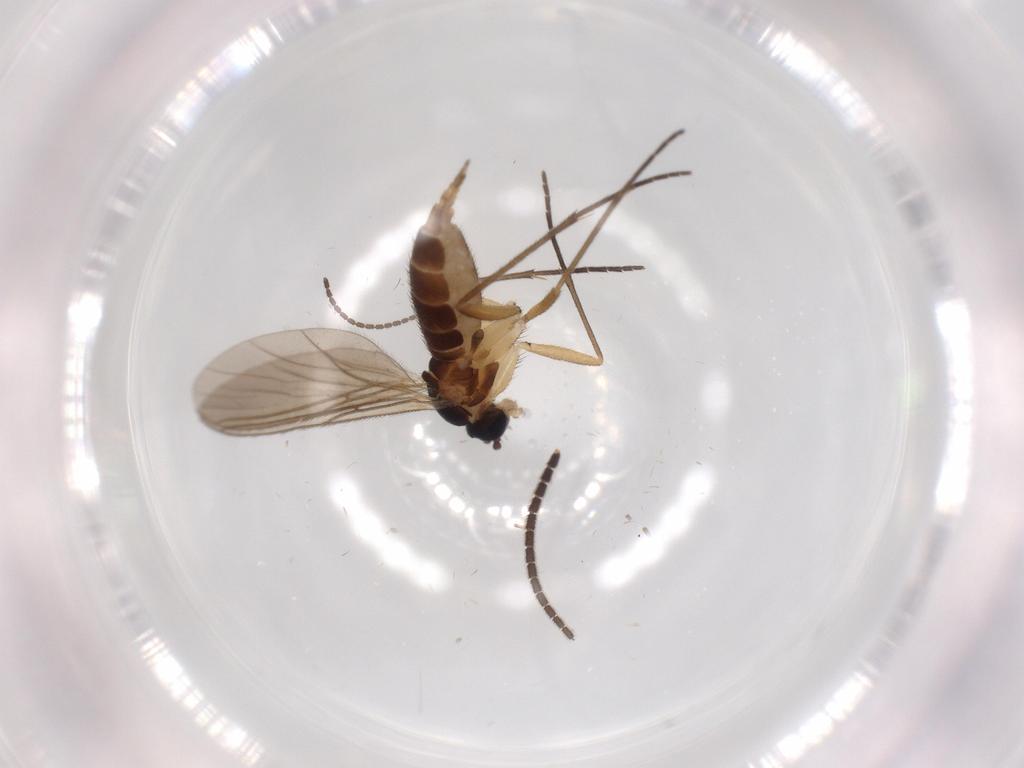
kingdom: Animalia
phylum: Arthropoda
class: Insecta
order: Diptera
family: Sciaridae
